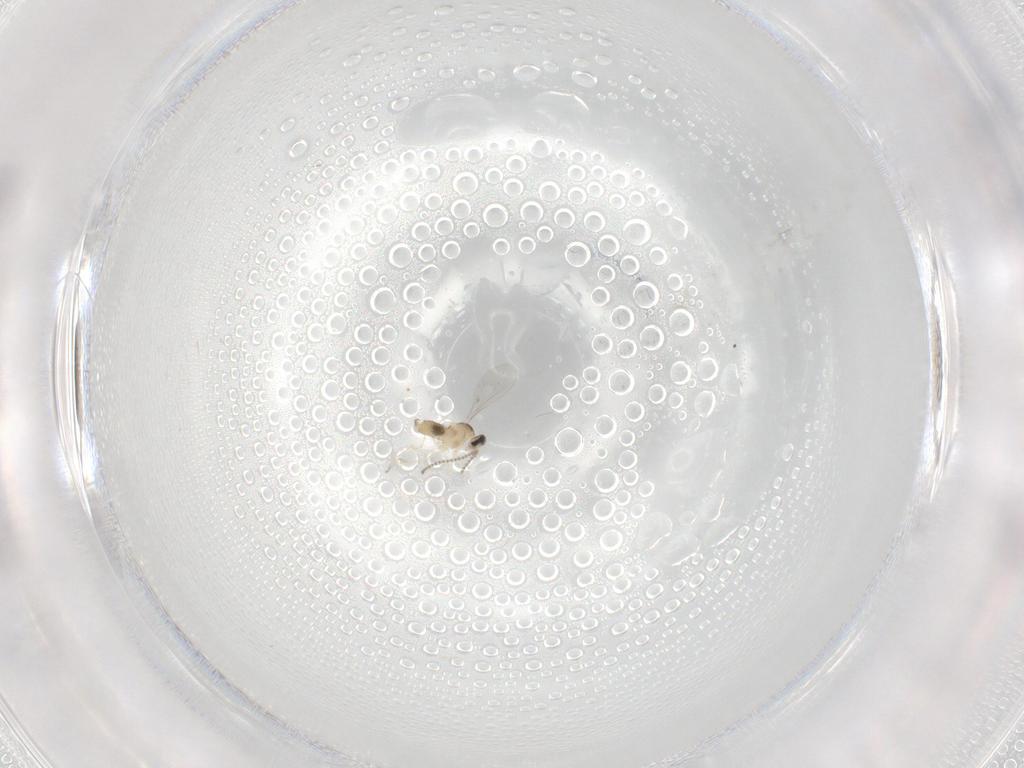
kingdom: Animalia
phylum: Arthropoda
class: Insecta
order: Diptera
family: Cecidomyiidae
